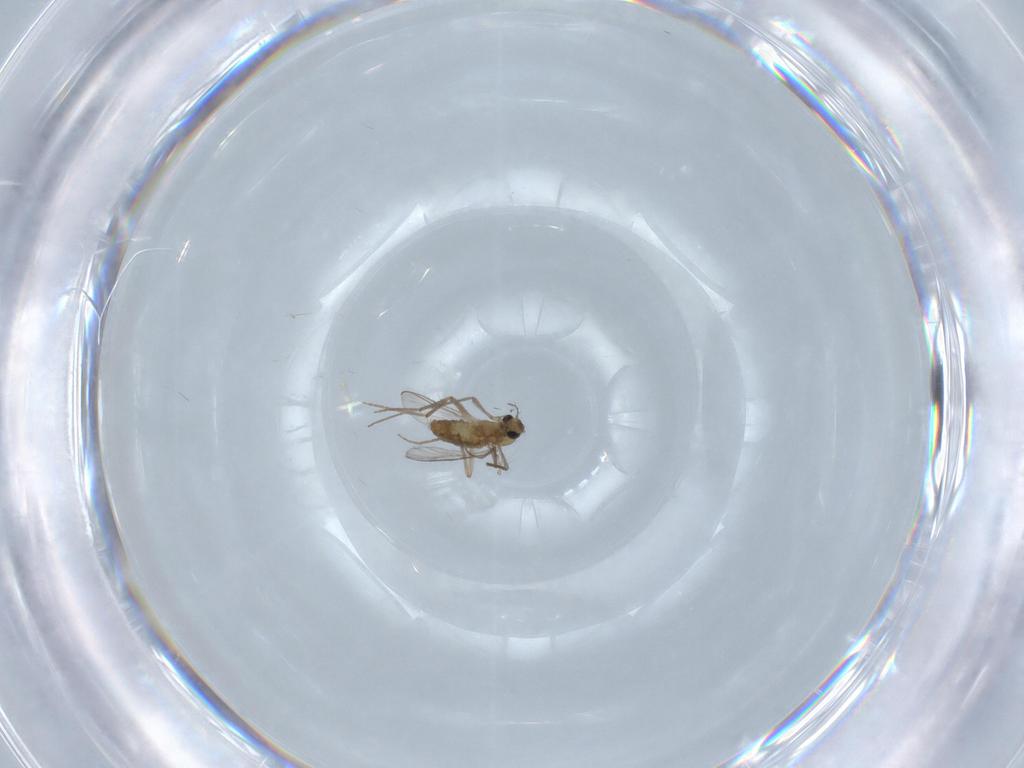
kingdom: Animalia
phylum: Arthropoda
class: Insecta
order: Diptera
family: Chironomidae
